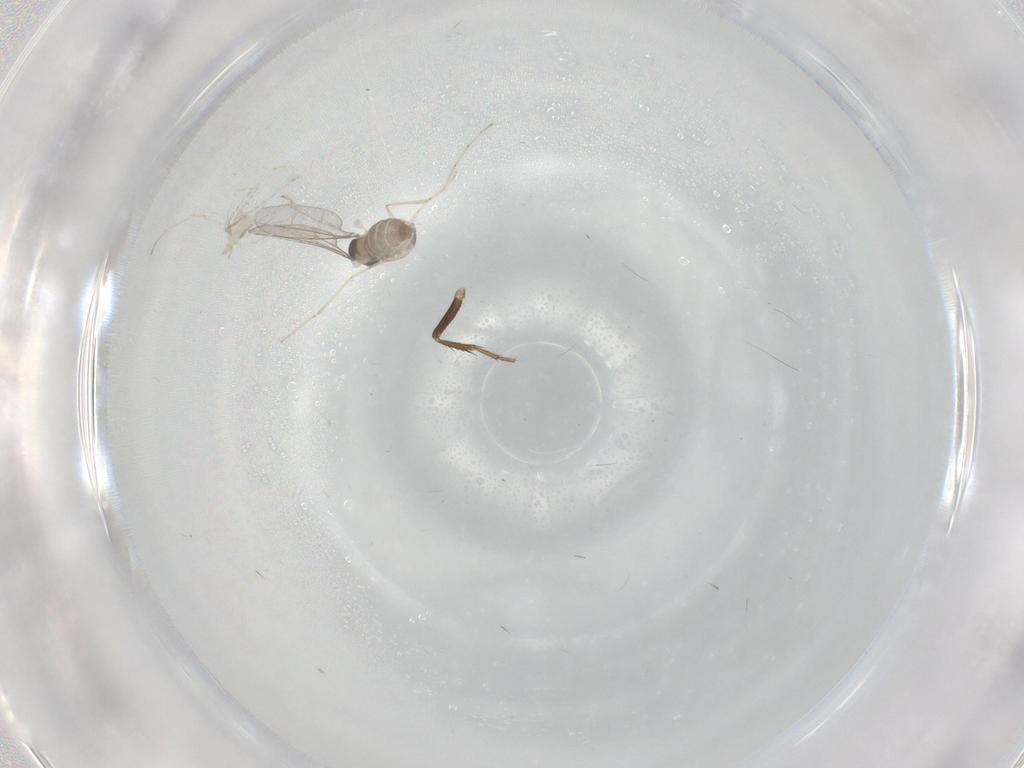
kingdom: Animalia
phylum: Arthropoda
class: Insecta
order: Diptera
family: Cecidomyiidae
